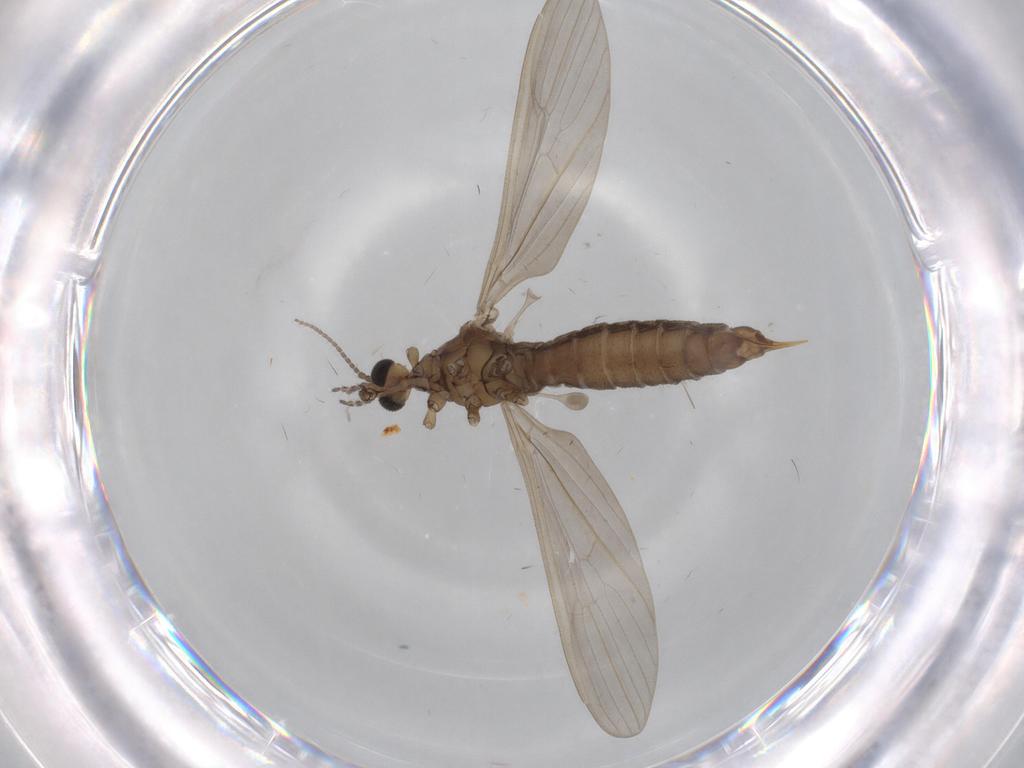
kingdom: Animalia
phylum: Arthropoda
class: Insecta
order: Diptera
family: Limoniidae
